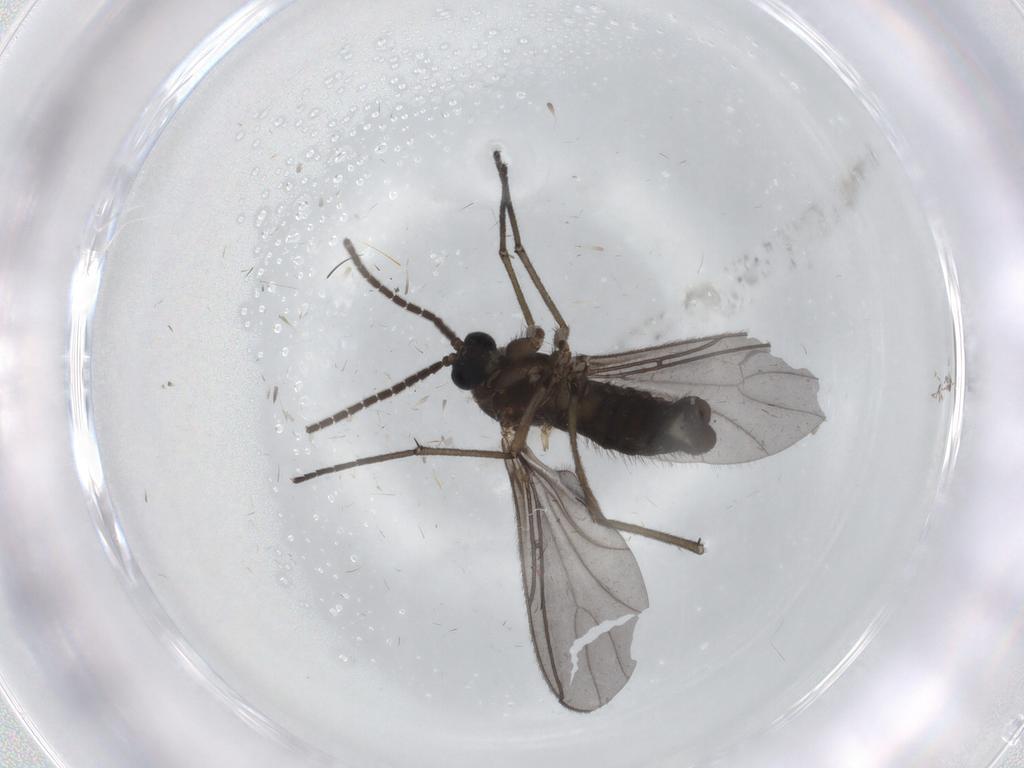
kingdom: Animalia
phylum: Arthropoda
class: Insecta
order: Diptera
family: Sciaridae
